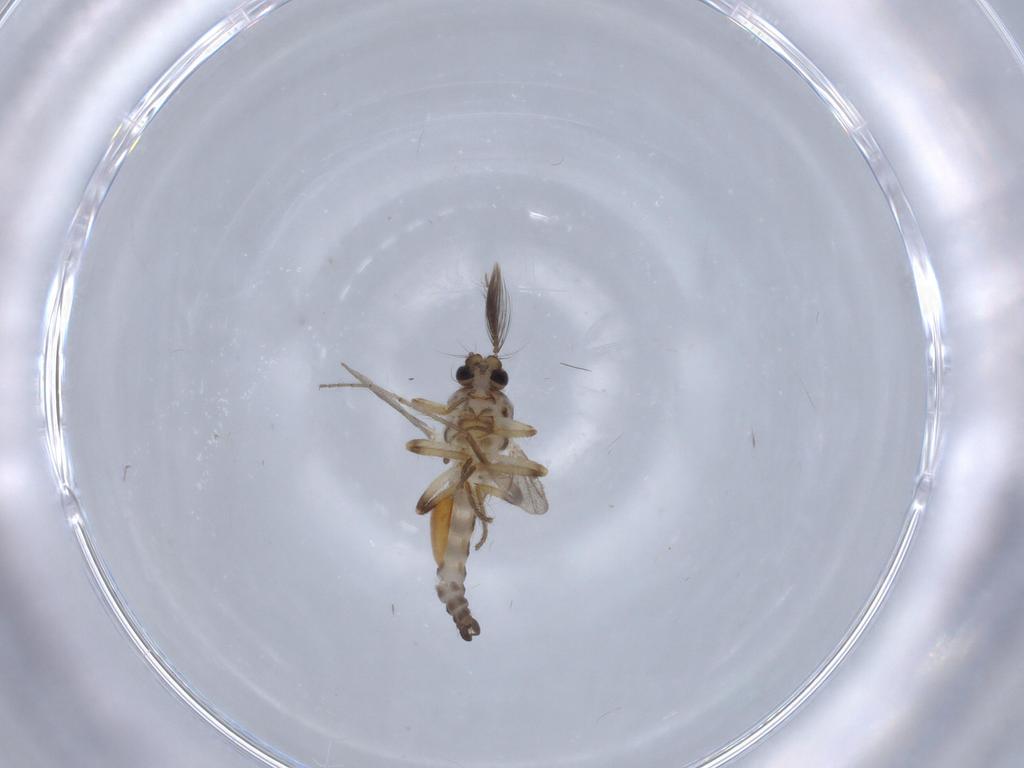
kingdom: Animalia
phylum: Arthropoda
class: Insecta
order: Diptera
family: Ceratopogonidae
